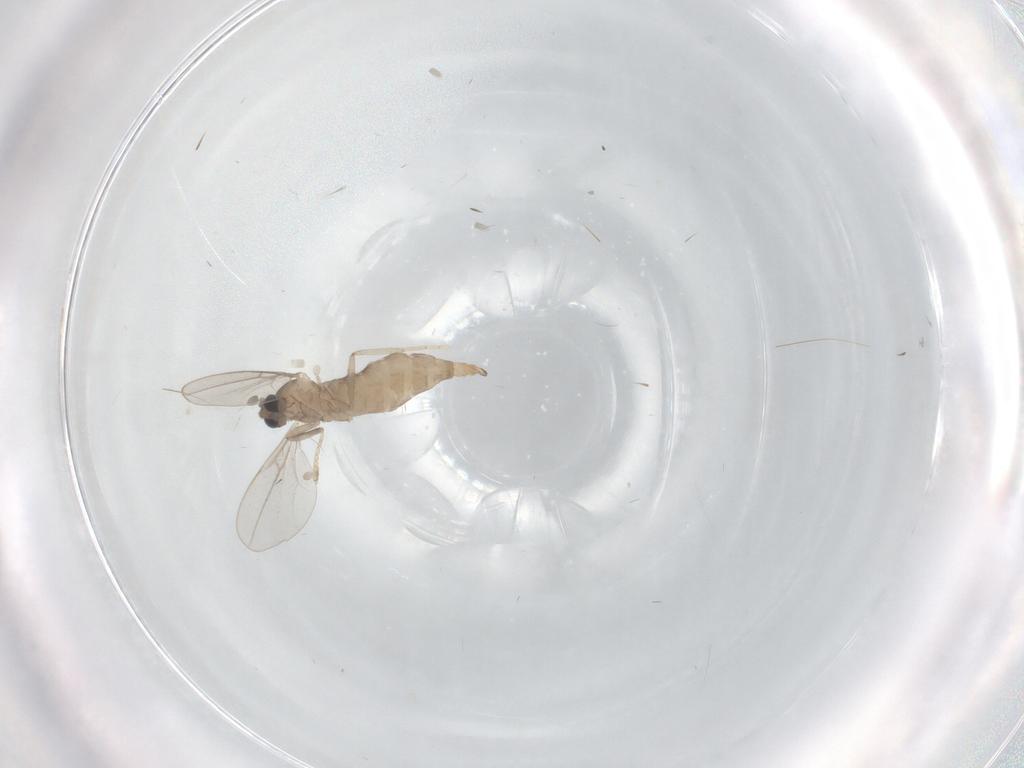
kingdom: Animalia
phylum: Arthropoda
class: Insecta
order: Diptera
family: Cecidomyiidae
